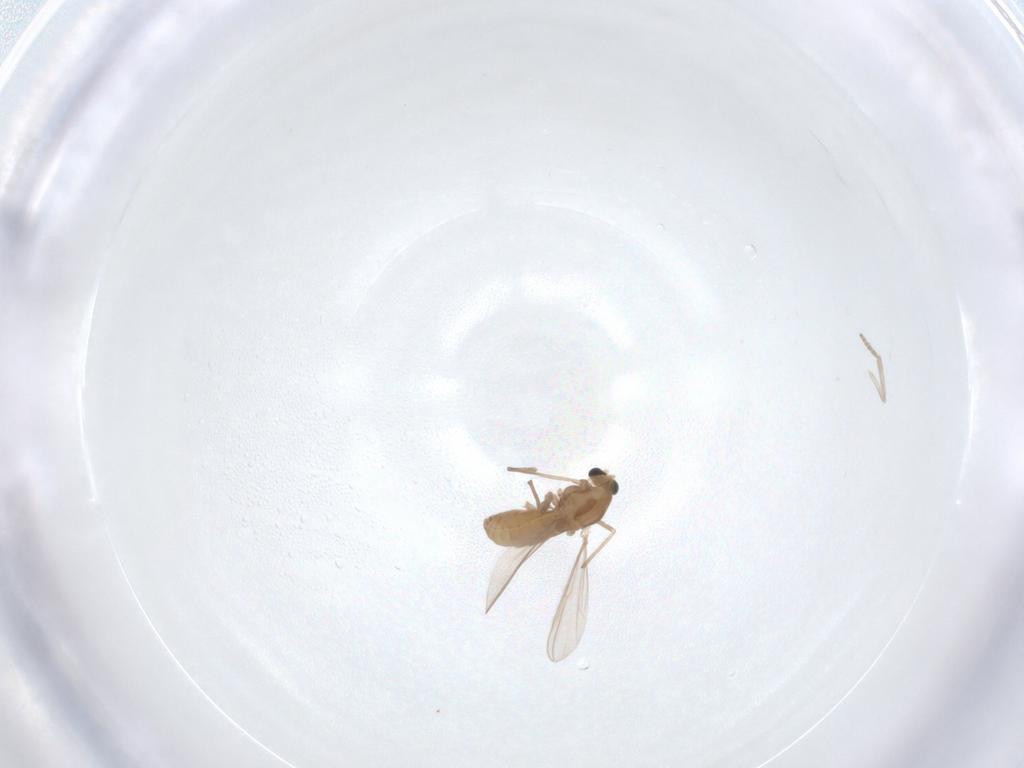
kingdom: Animalia
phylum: Arthropoda
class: Insecta
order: Diptera
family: Chironomidae
